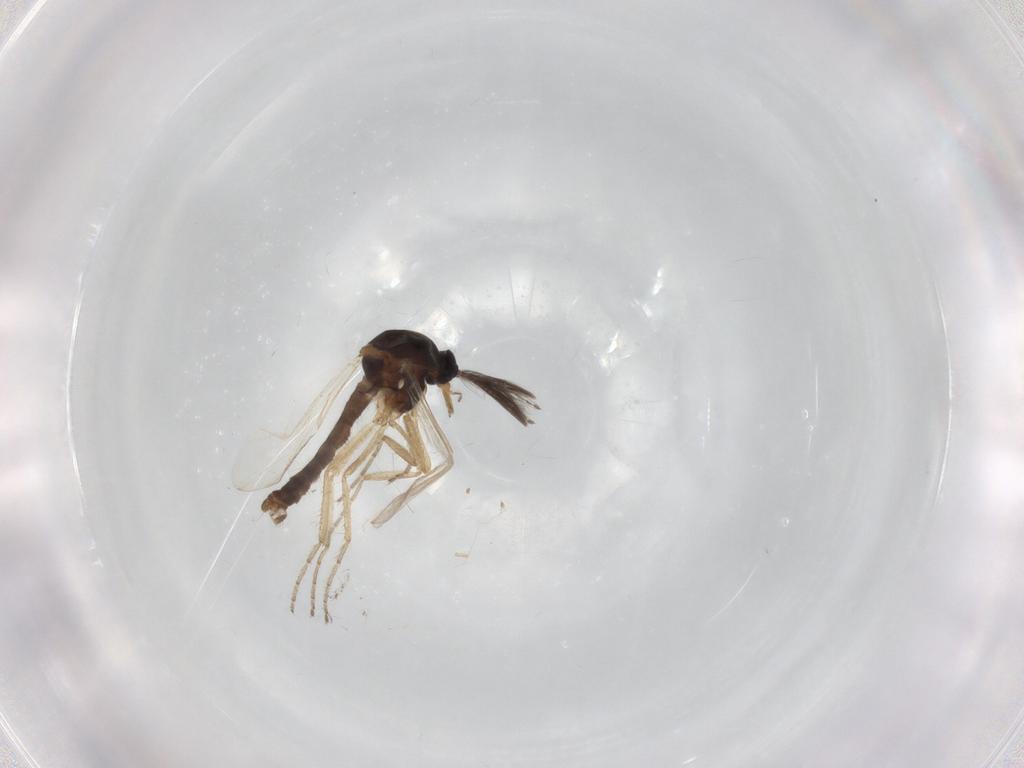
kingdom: Animalia
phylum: Arthropoda
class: Insecta
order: Diptera
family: Ceratopogonidae
